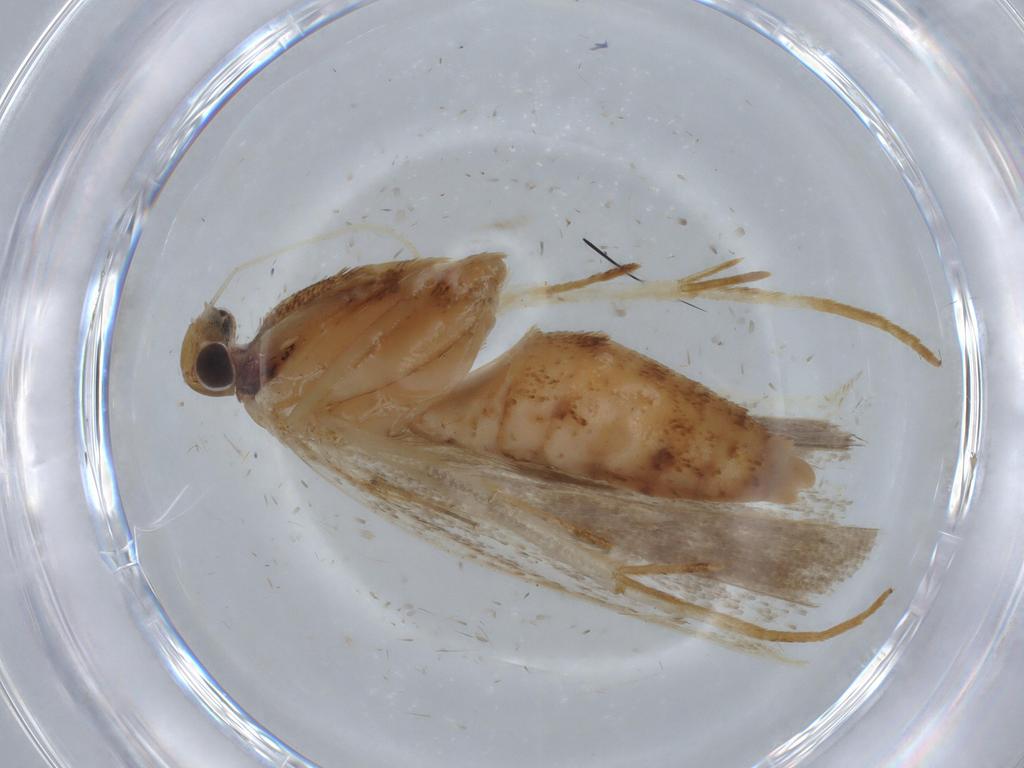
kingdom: Animalia
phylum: Arthropoda
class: Insecta
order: Lepidoptera
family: Gelechiidae
